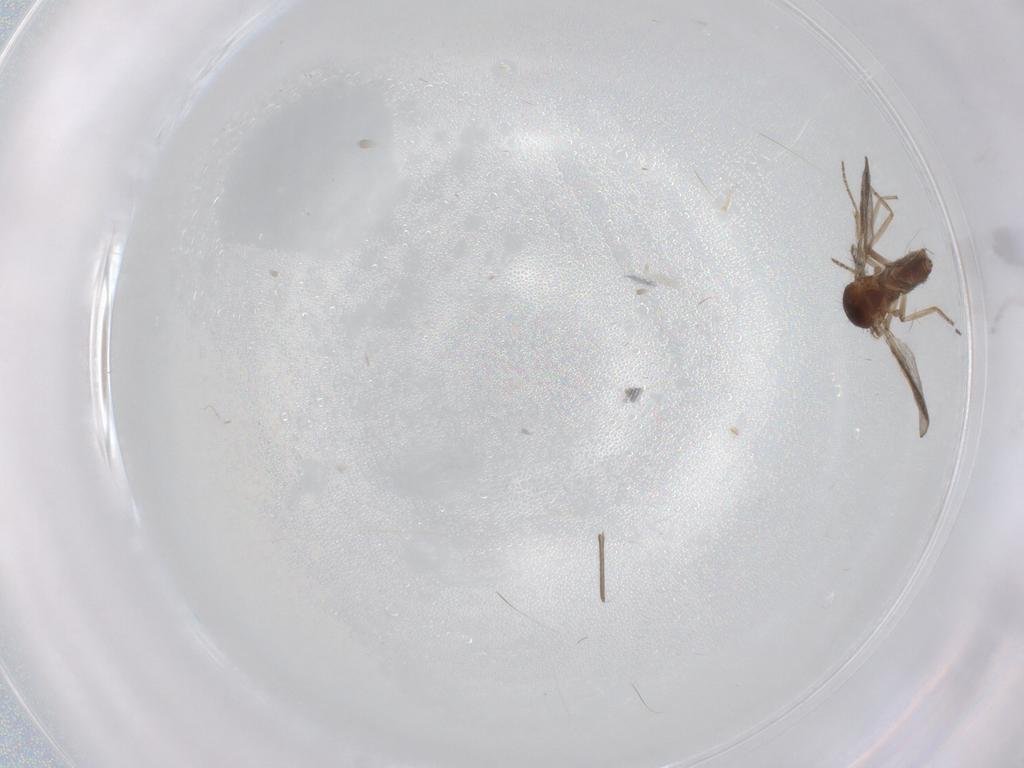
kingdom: Animalia
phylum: Arthropoda
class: Insecta
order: Diptera
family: Ceratopogonidae
